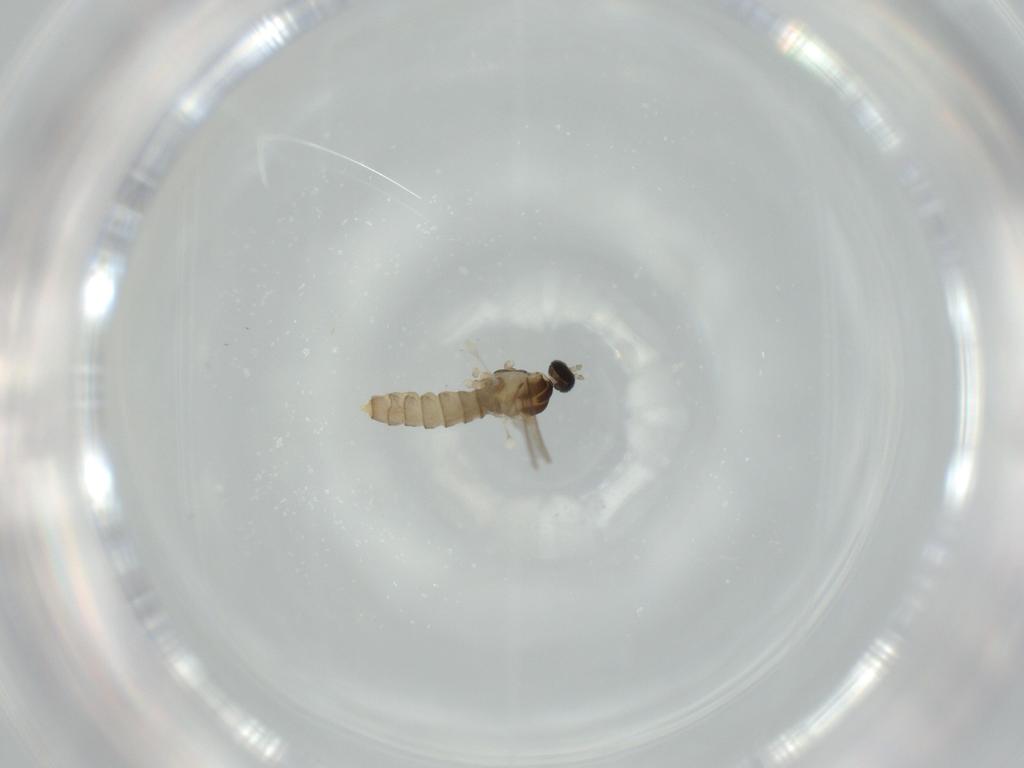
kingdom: Animalia
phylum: Arthropoda
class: Insecta
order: Diptera
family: Cecidomyiidae
